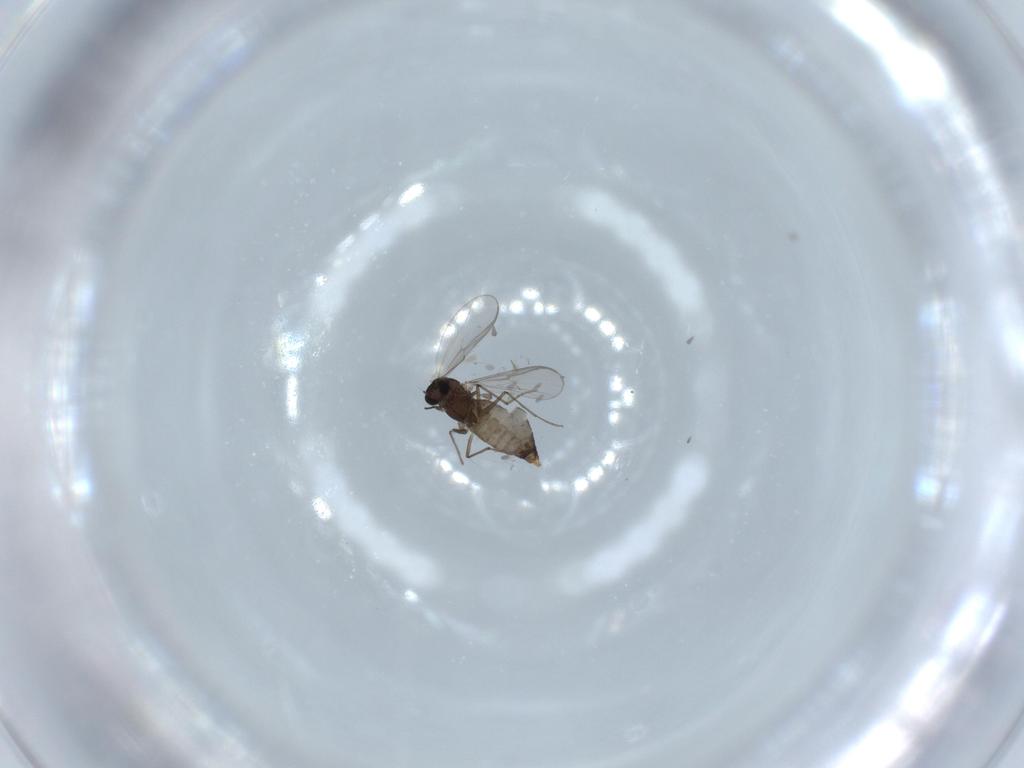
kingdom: Animalia
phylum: Arthropoda
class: Insecta
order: Diptera
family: Chironomidae
